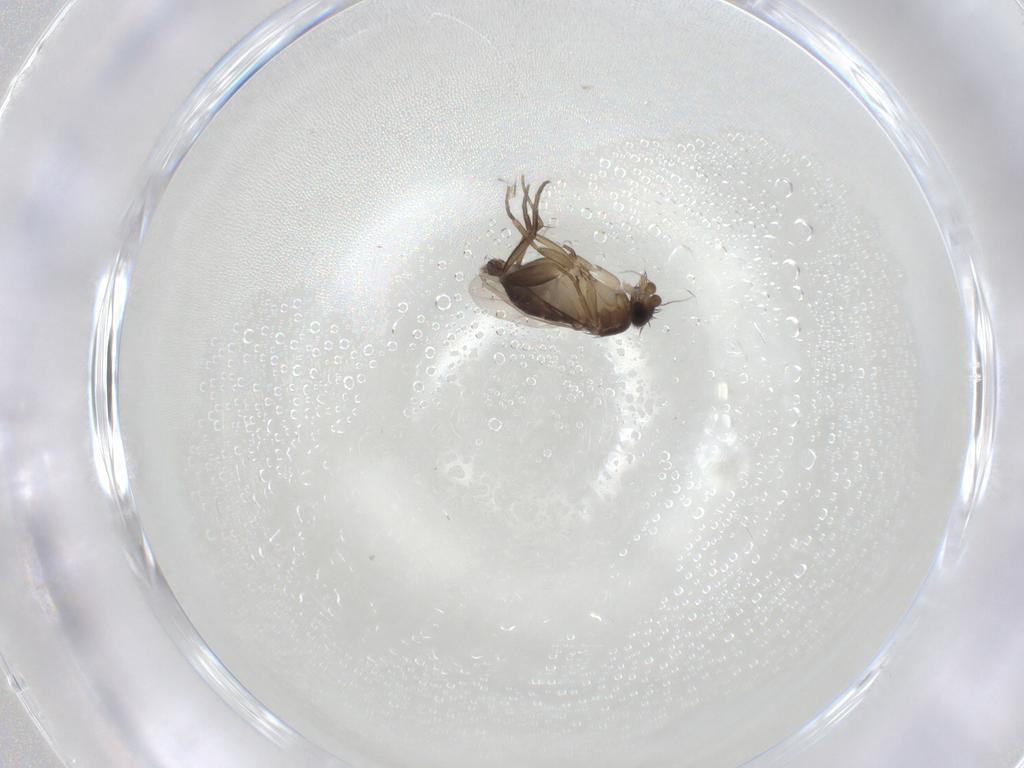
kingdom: Animalia
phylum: Arthropoda
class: Insecta
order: Diptera
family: Phoridae
